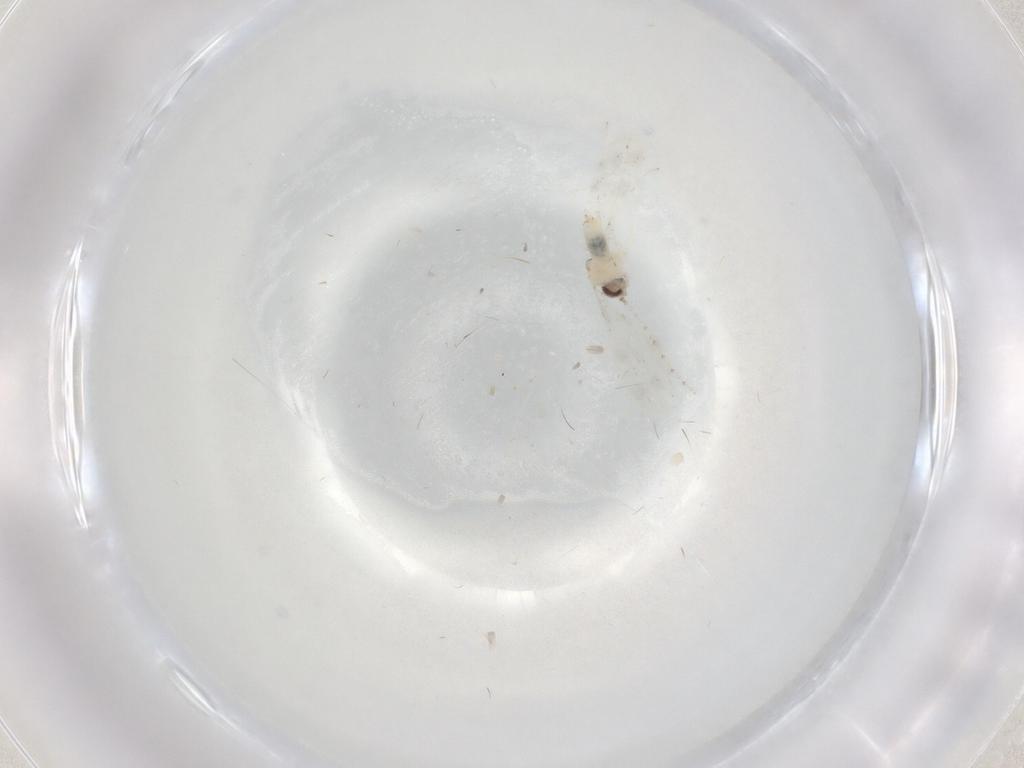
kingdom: Animalia
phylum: Arthropoda
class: Insecta
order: Diptera
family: Cecidomyiidae
